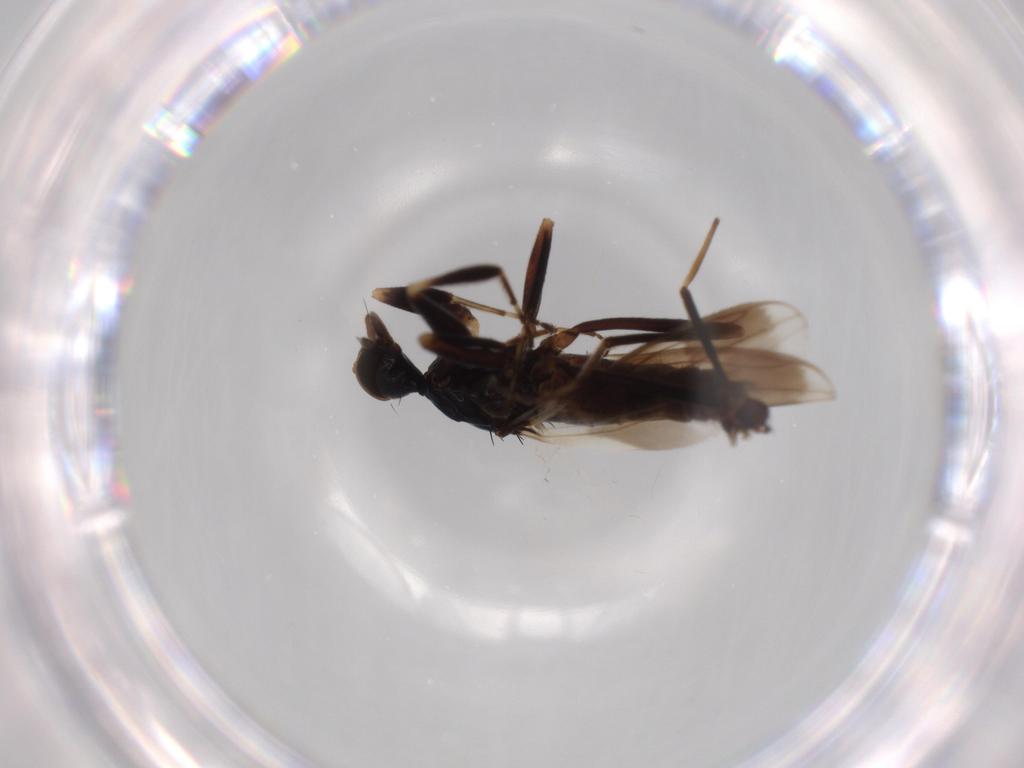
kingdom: Animalia
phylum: Arthropoda
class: Insecta
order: Diptera
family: Hybotidae
